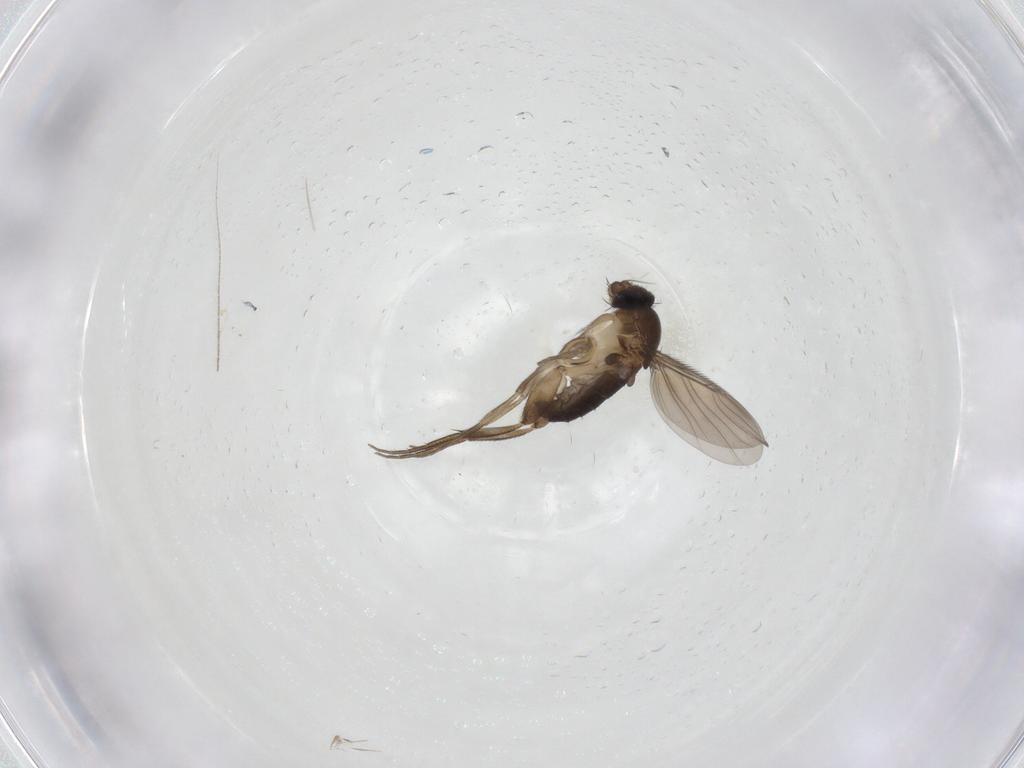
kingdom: Animalia
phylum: Arthropoda
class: Insecta
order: Diptera
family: Phoridae
